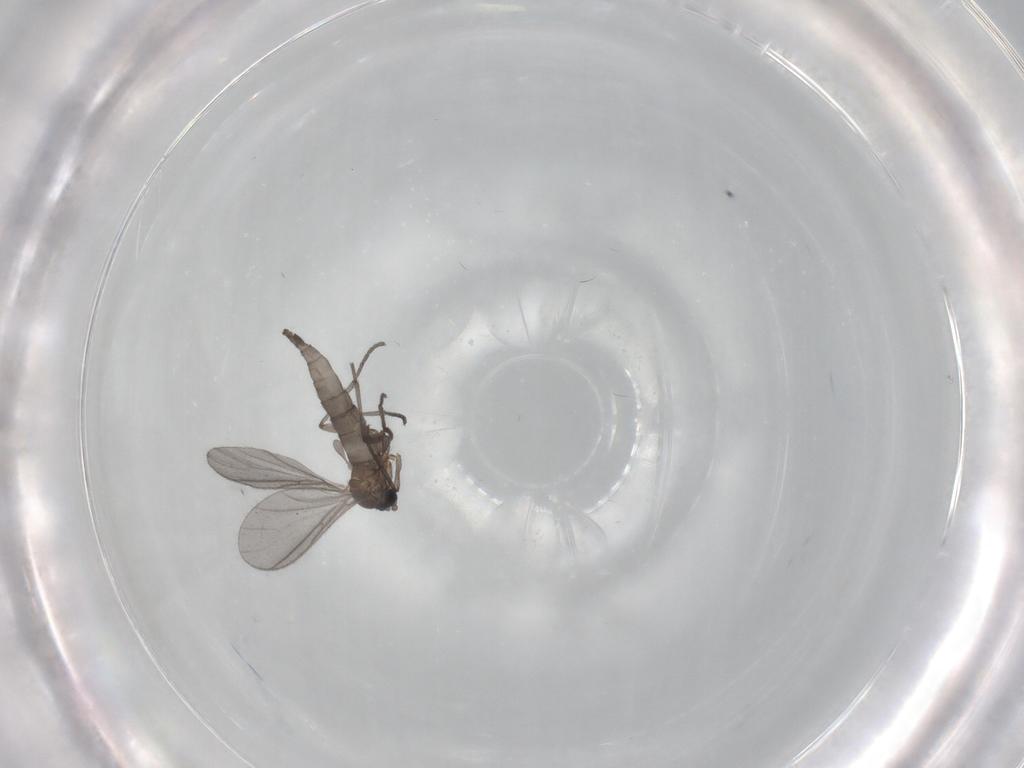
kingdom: Animalia
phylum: Arthropoda
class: Insecta
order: Diptera
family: Sciaridae
